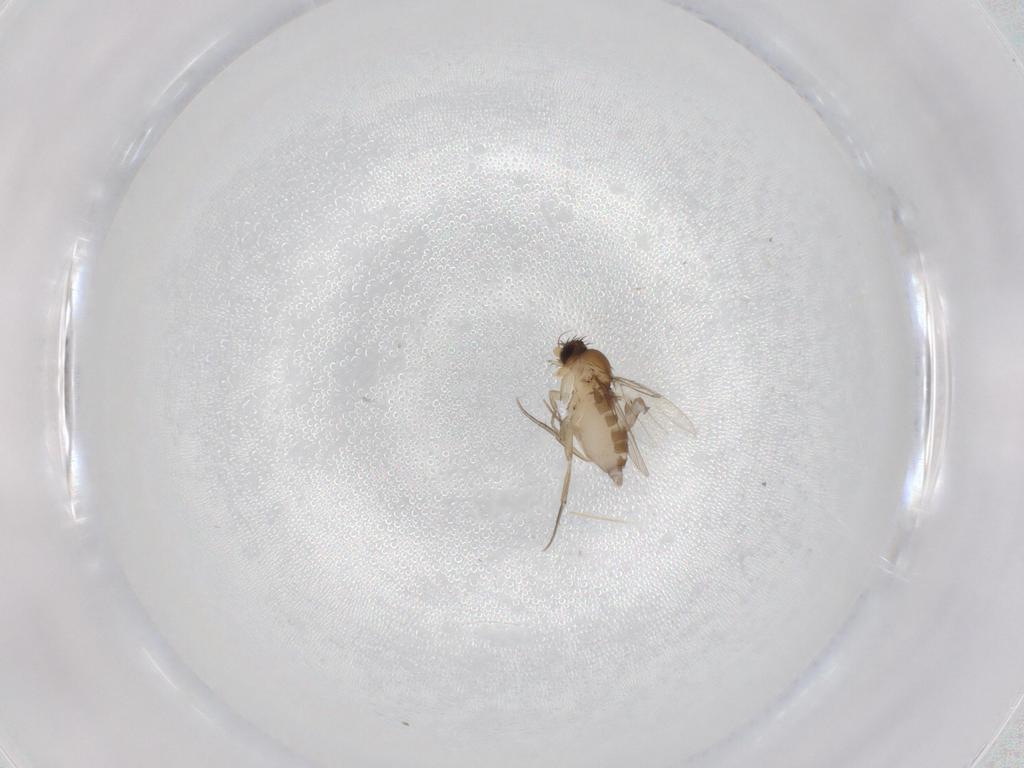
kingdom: Animalia
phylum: Arthropoda
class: Insecta
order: Diptera
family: Phoridae
